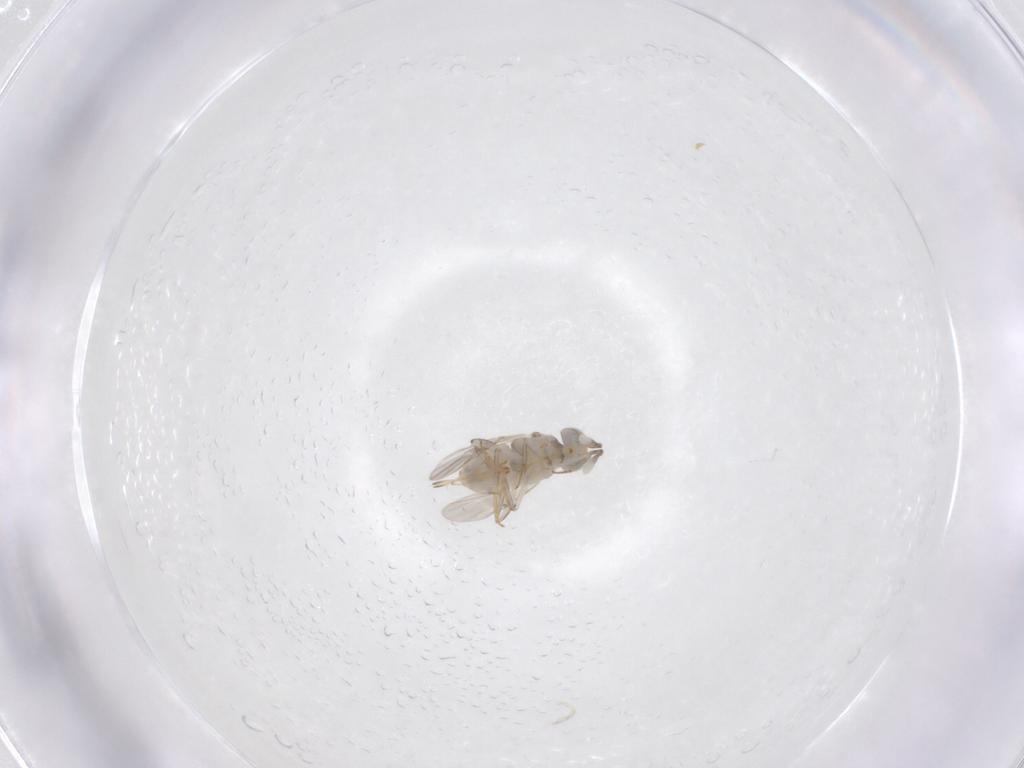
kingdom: Animalia
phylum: Arthropoda
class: Insecta
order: Hymenoptera
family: Encyrtidae
